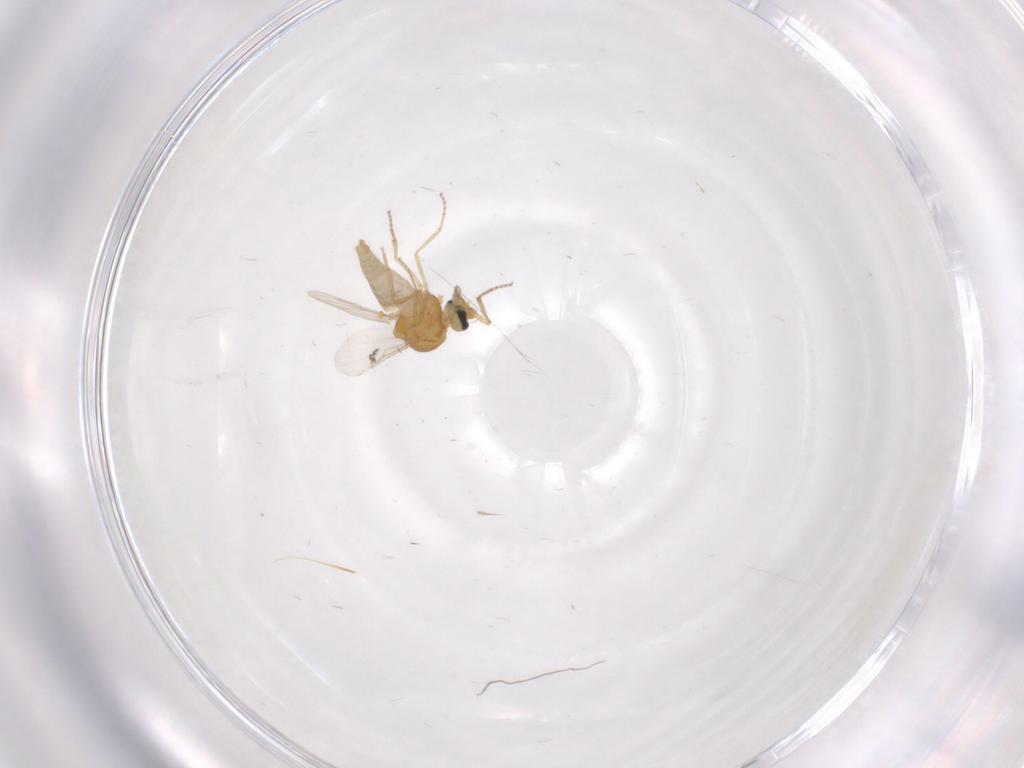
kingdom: Animalia
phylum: Arthropoda
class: Insecta
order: Diptera
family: Ceratopogonidae
